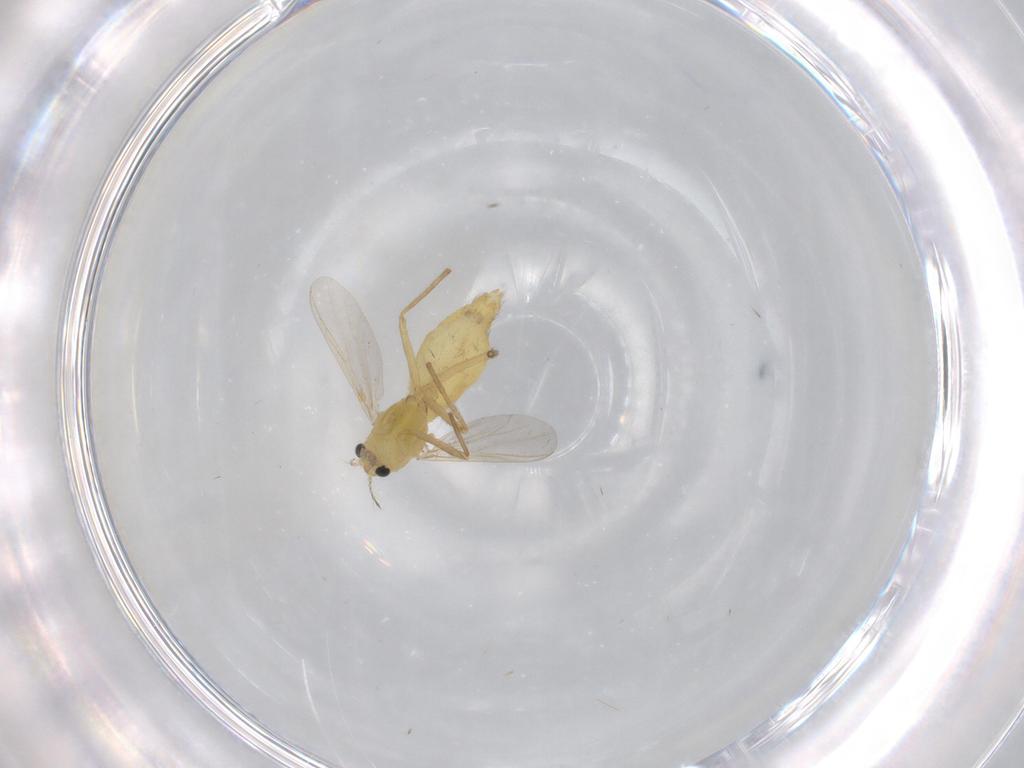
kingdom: Animalia
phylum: Arthropoda
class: Insecta
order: Diptera
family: Chironomidae
